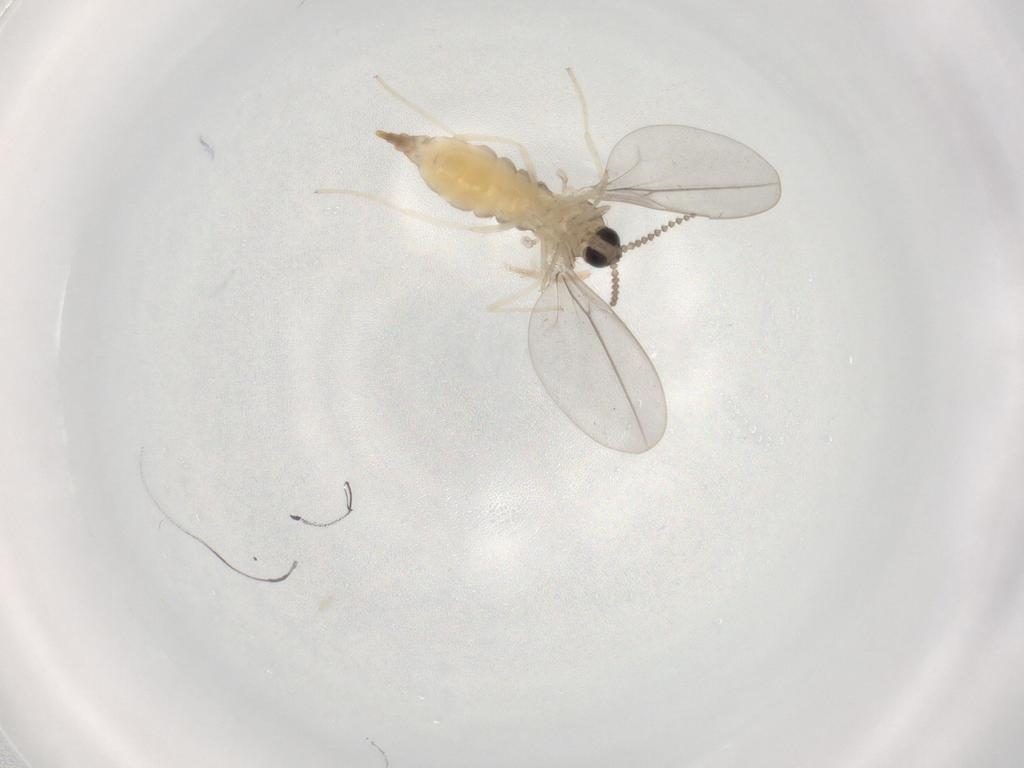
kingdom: Animalia
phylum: Arthropoda
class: Insecta
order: Diptera
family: Cecidomyiidae
